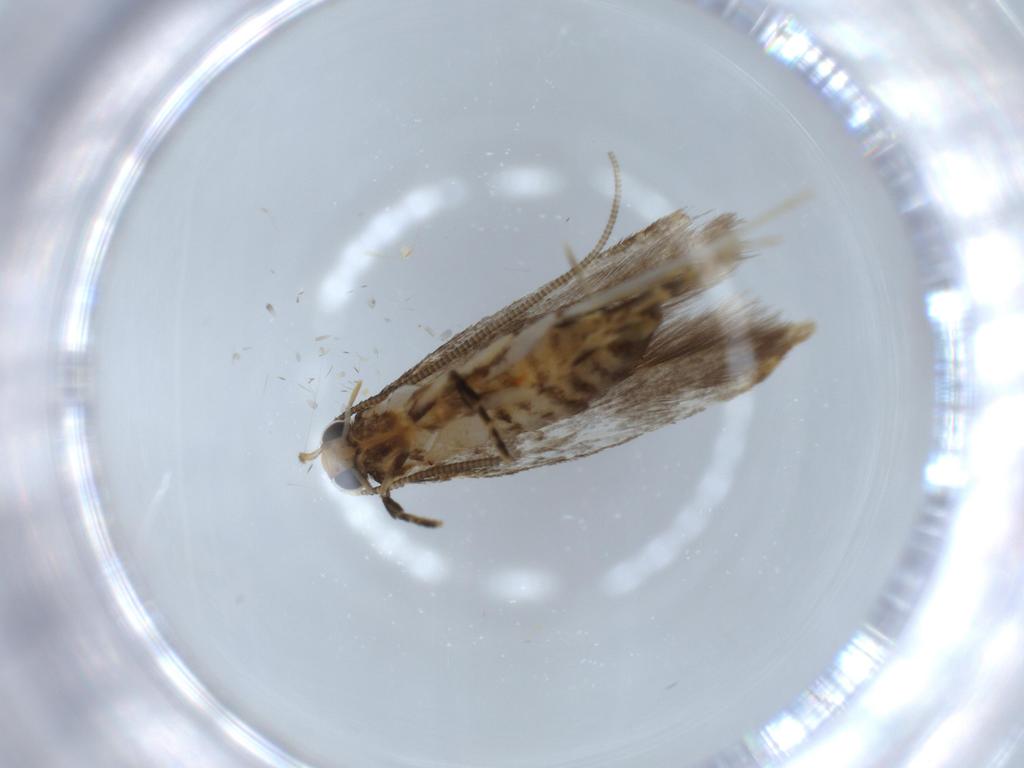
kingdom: Animalia
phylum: Arthropoda
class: Insecta
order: Lepidoptera
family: Tineidae
